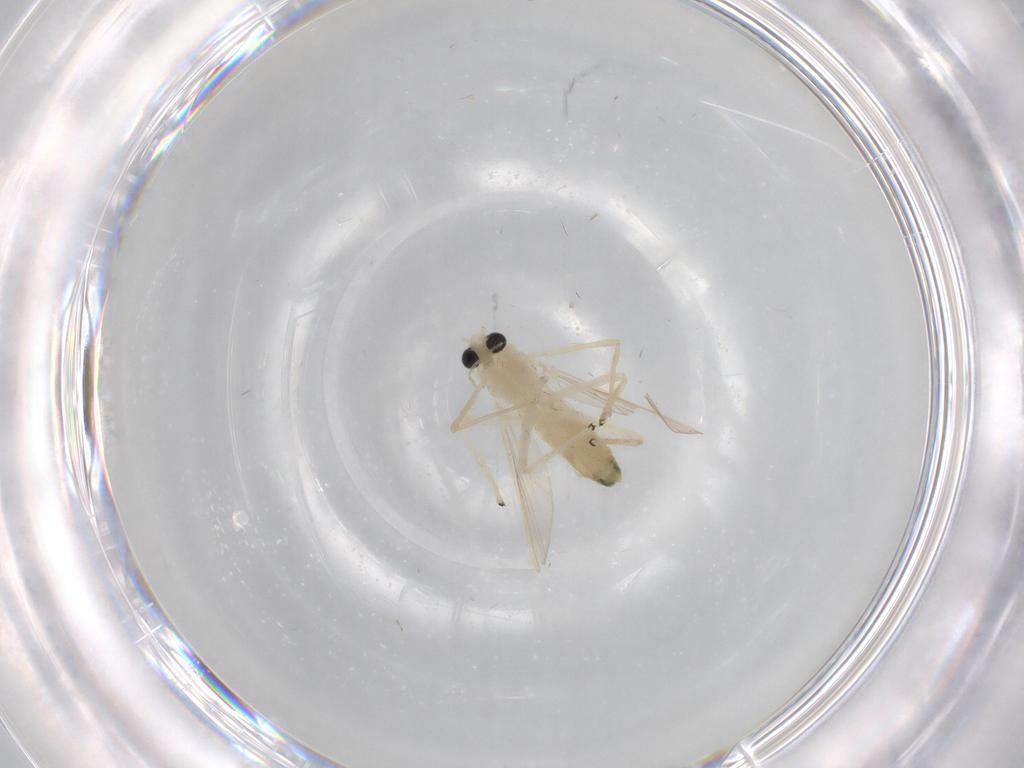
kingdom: Animalia
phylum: Arthropoda
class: Insecta
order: Diptera
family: Chironomidae
